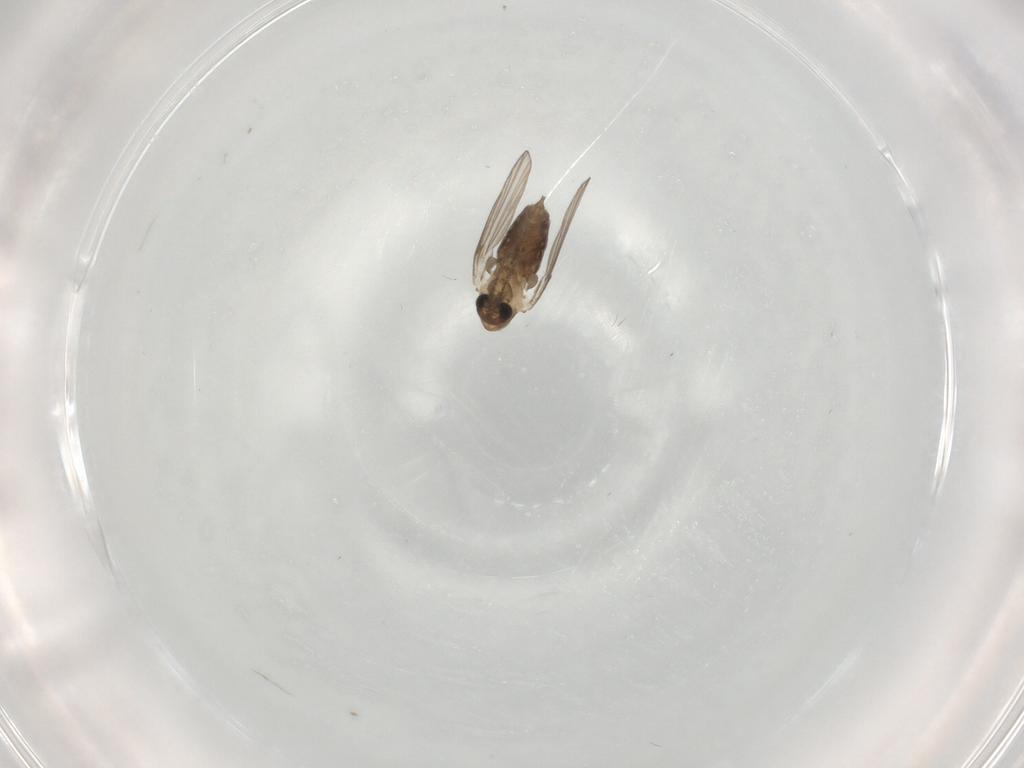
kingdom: Animalia
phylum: Arthropoda
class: Insecta
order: Diptera
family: Psychodidae
